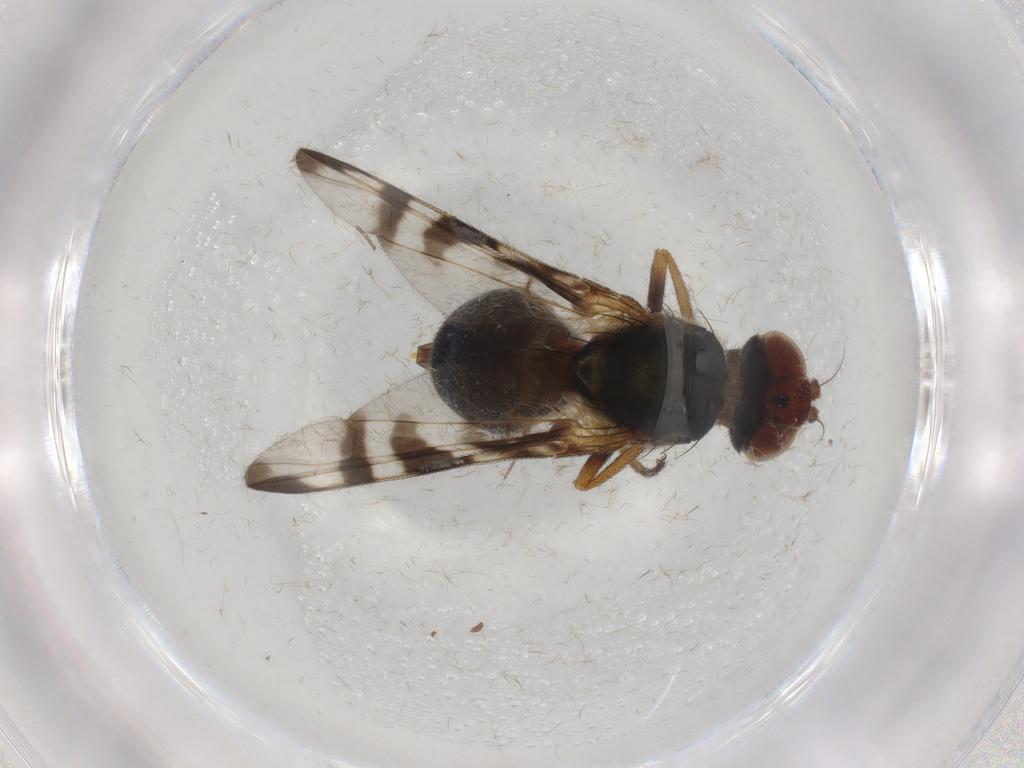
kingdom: Animalia
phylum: Arthropoda
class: Insecta
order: Diptera
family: Platystomatidae
